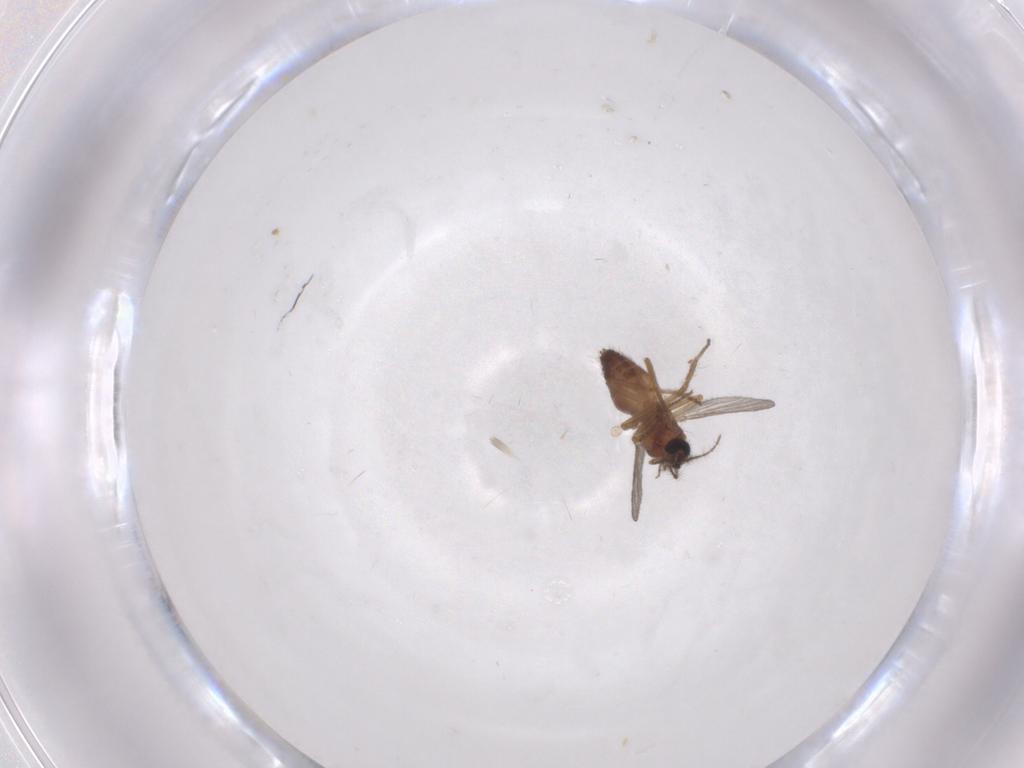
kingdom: Animalia
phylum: Arthropoda
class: Insecta
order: Diptera
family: Ceratopogonidae
